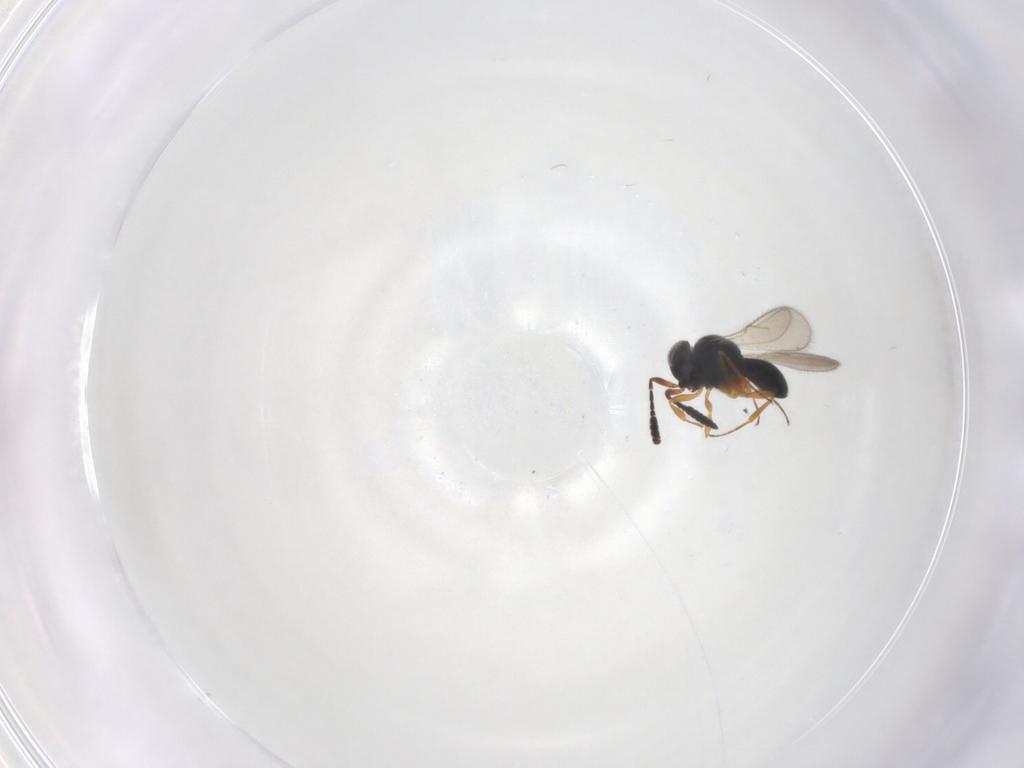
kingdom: Animalia
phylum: Arthropoda
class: Insecta
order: Hymenoptera
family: Scelionidae
